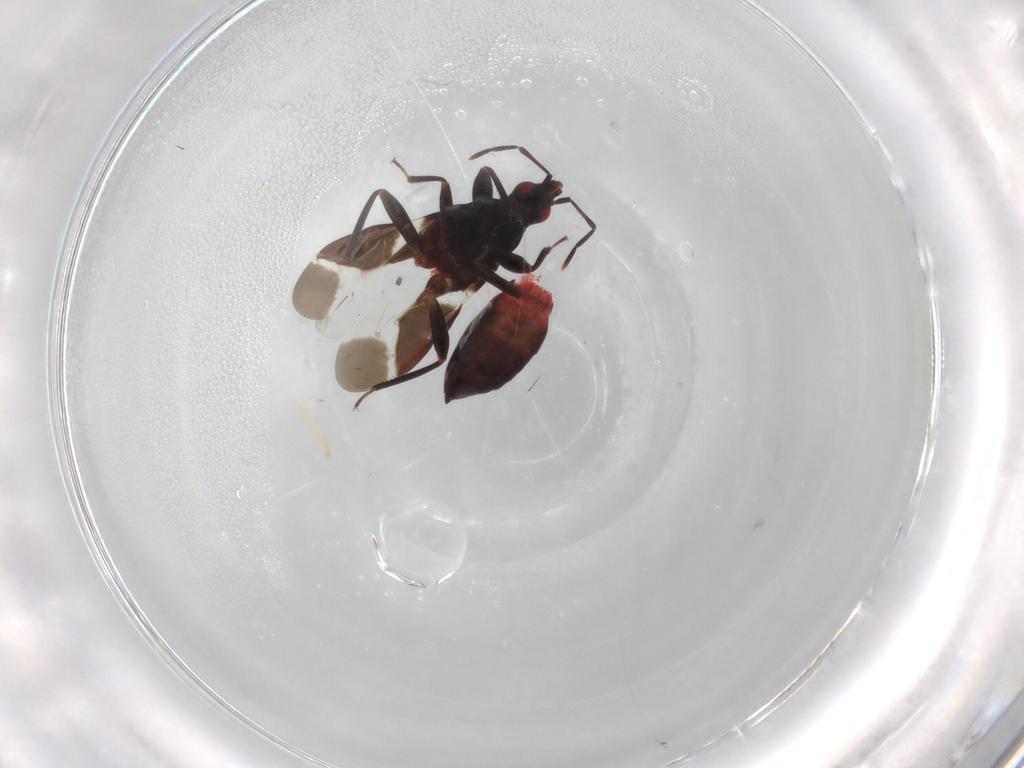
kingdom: Animalia
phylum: Arthropoda
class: Insecta
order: Hemiptera
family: Anthocoridae
